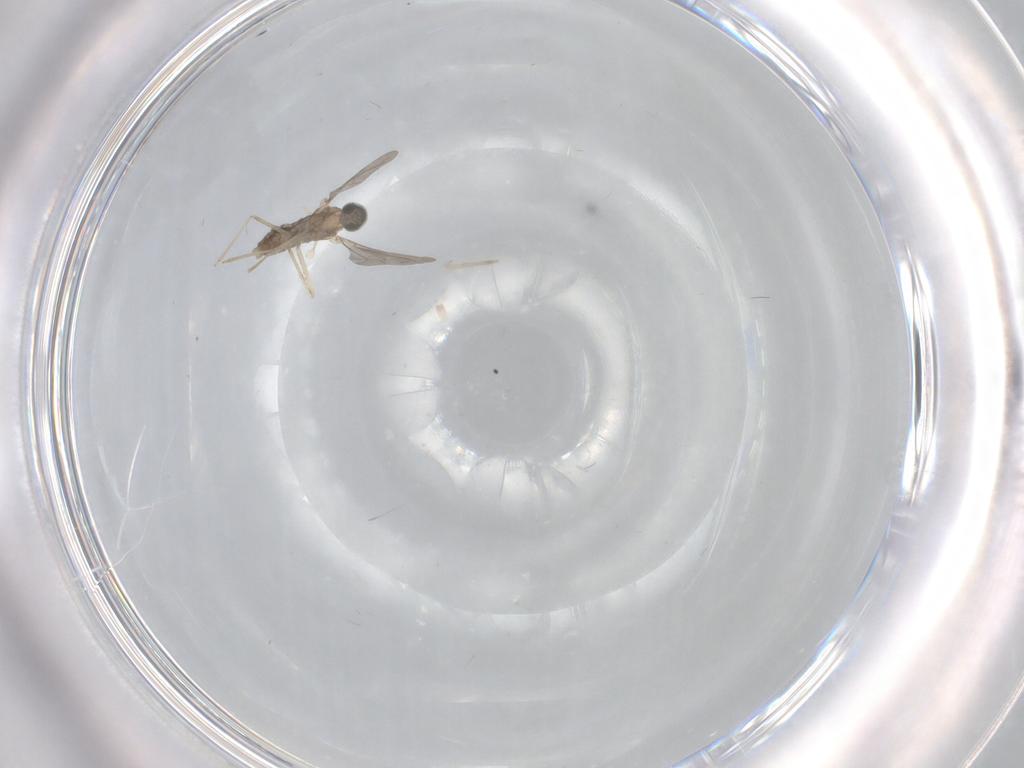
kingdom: Animalia
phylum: Arthropoda
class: Insecta
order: Diptera
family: Cecidomyiidae
